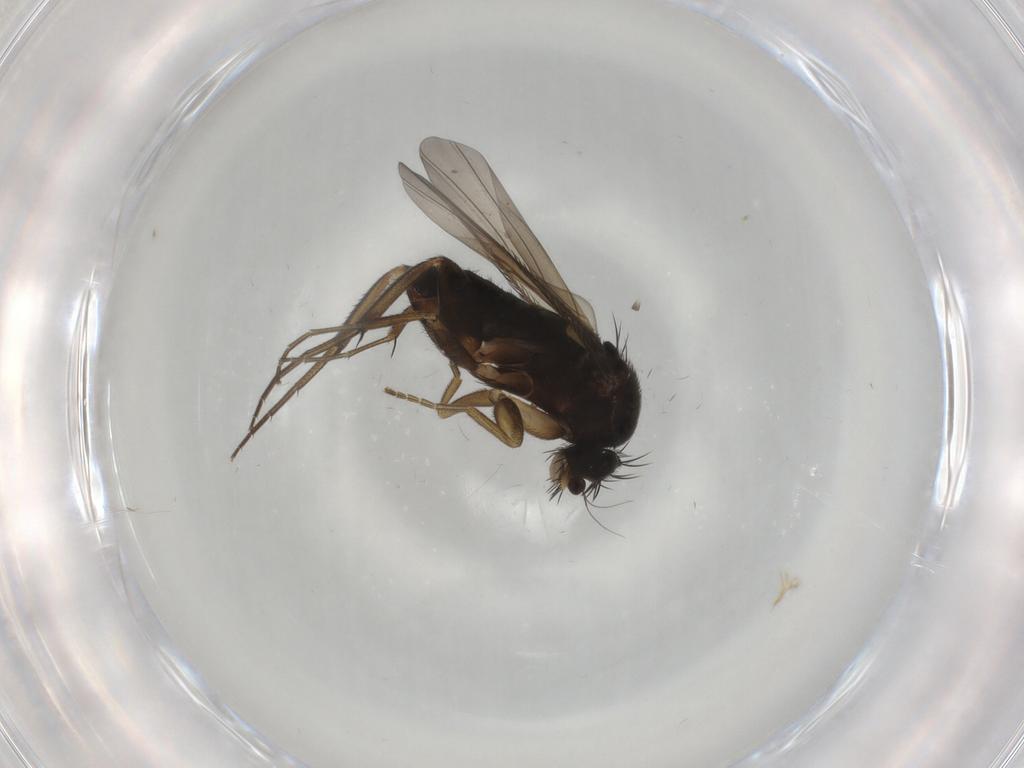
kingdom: Animalia
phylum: Arthropoda
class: Insecta
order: Diptera
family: Phoridae
